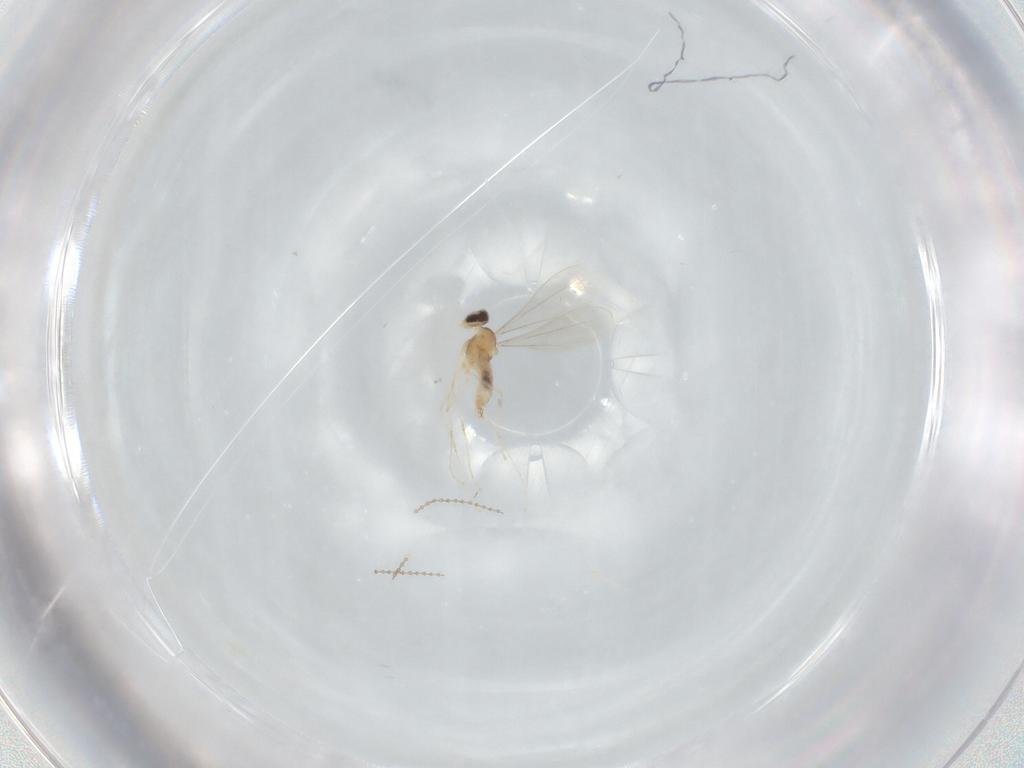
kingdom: Animalia
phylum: Arthropoda
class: Insecta
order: Diptera
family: Cecidomyiidae
